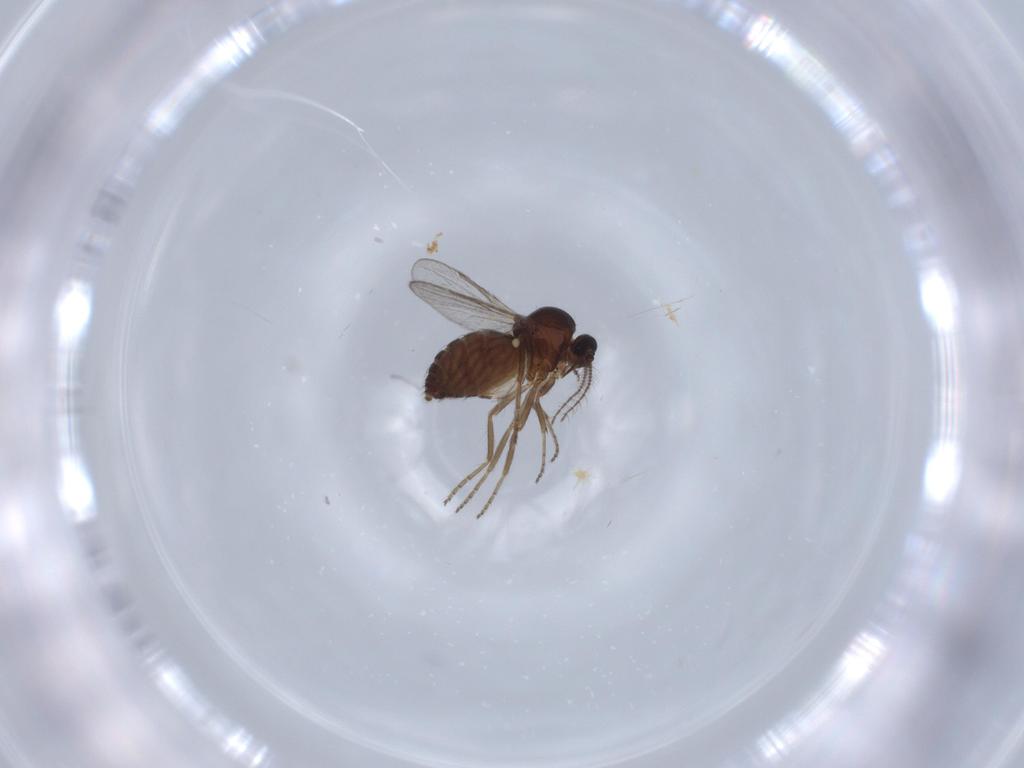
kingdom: Animalia
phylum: Arthropoda
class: Insecta
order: Diptera
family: Ceratopogonidae
